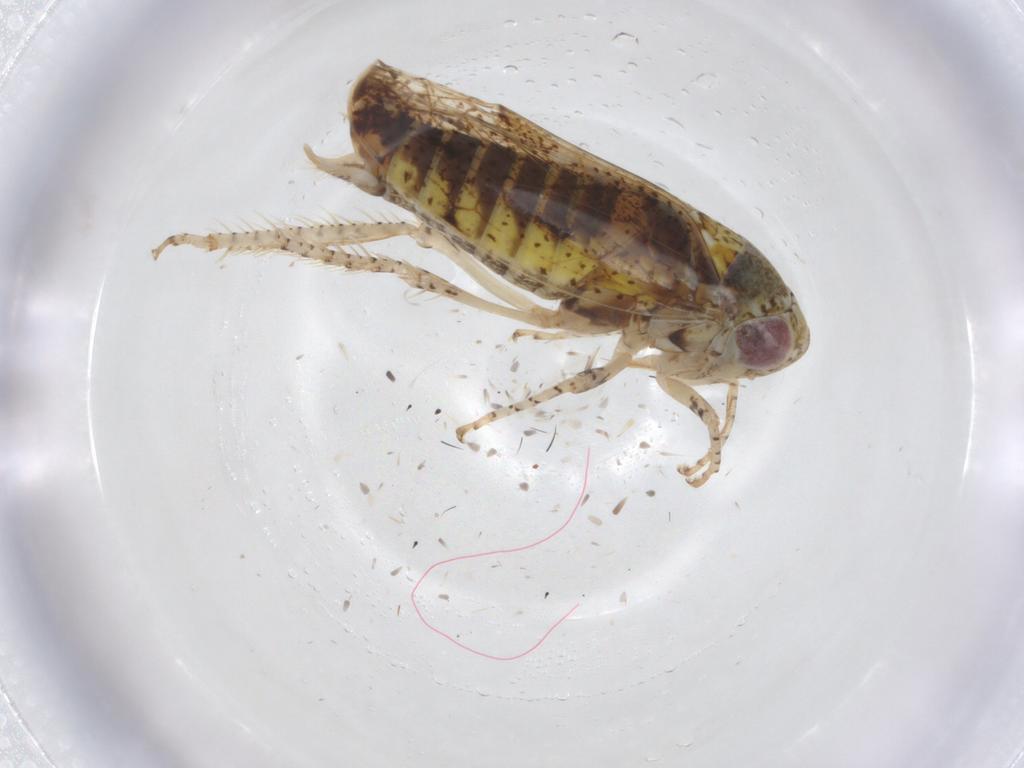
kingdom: Animalia
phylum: Arthropoda
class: Insecta
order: Hemiptera
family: Cicadellidae
